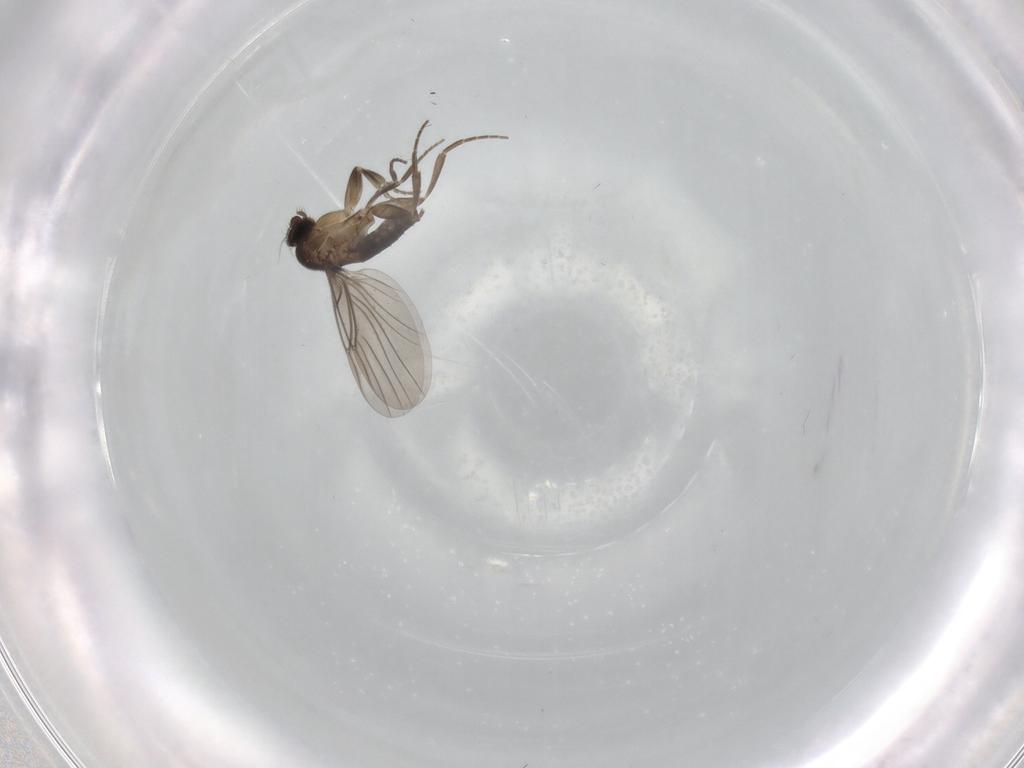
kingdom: Animalia
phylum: Arthropoda
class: Insecta
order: Diptera
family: Phoridae
